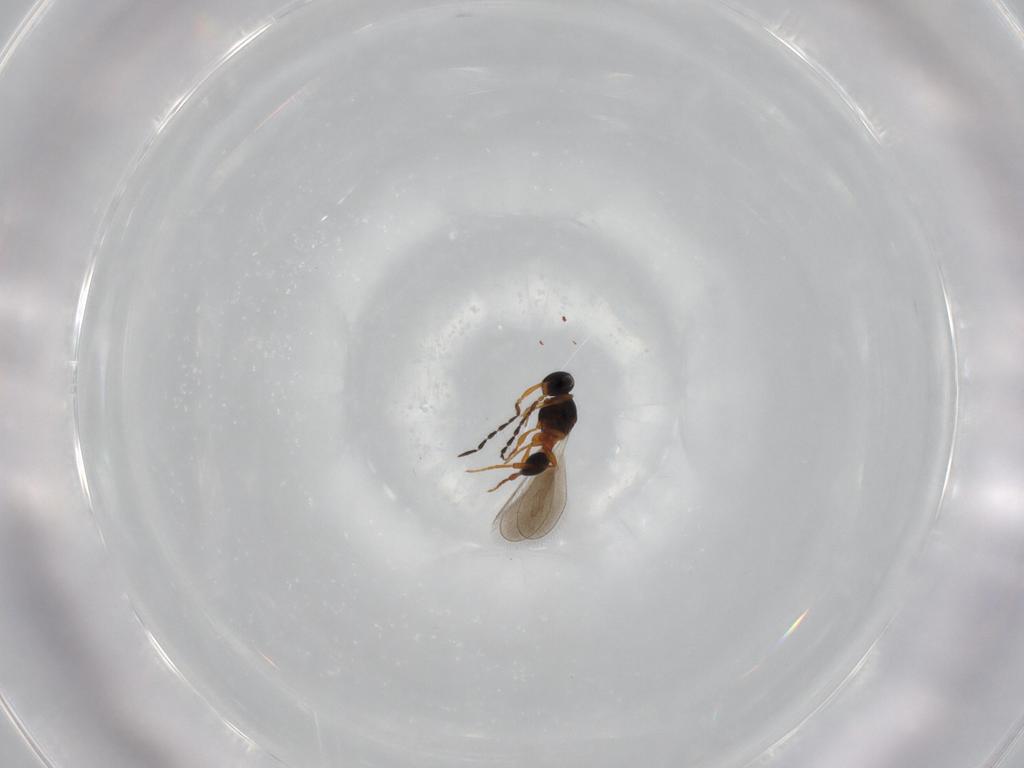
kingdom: Animalia
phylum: Arthropoda
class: Insecta
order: Hymenoptera
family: Platygastridae
